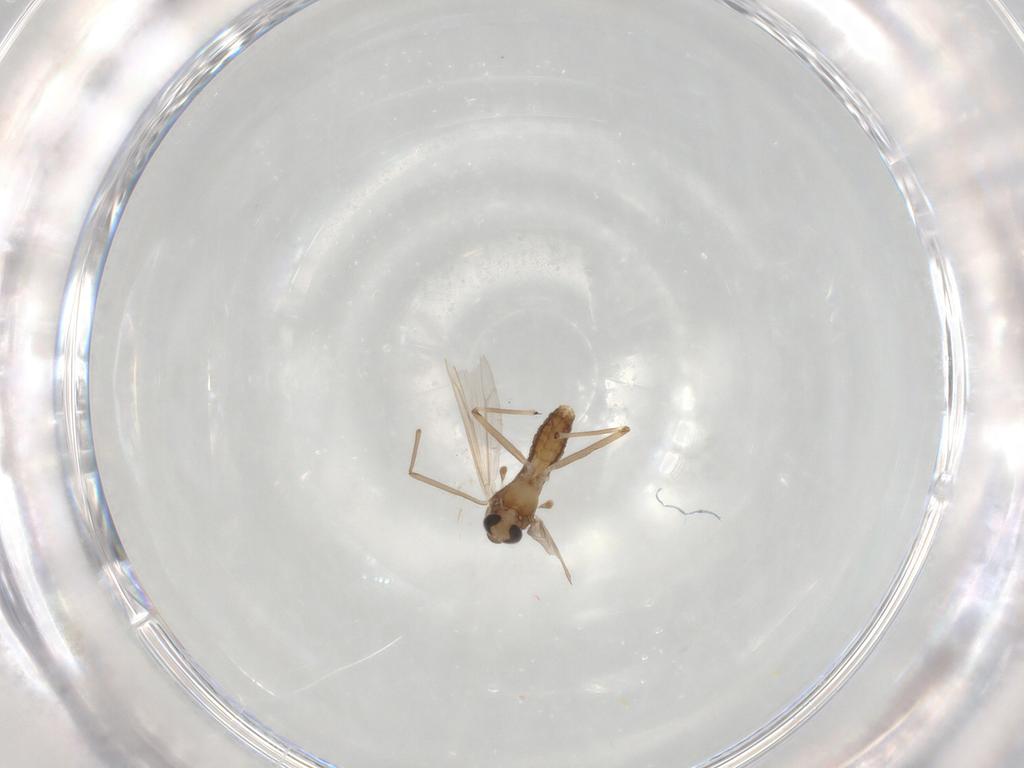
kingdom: Animalia
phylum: Arthropoda
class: Insecta
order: Diptera
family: Chironomidae
